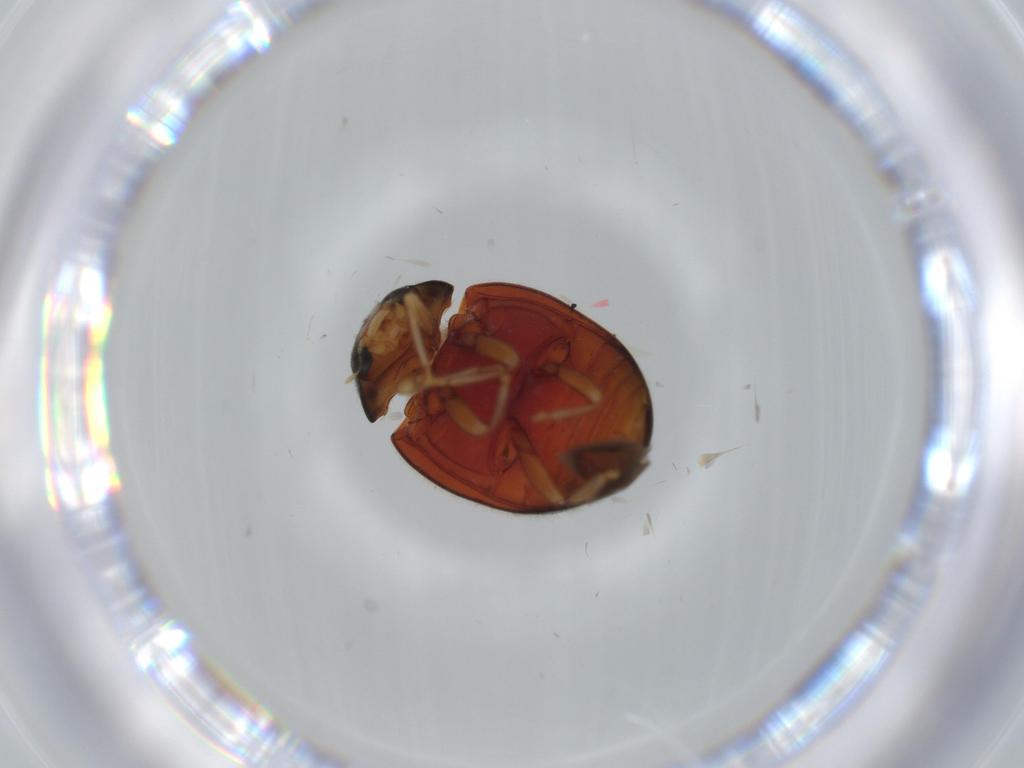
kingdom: Animalia
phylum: Arthropoda
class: Insecta
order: Coleoptera
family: Coccinellidae
